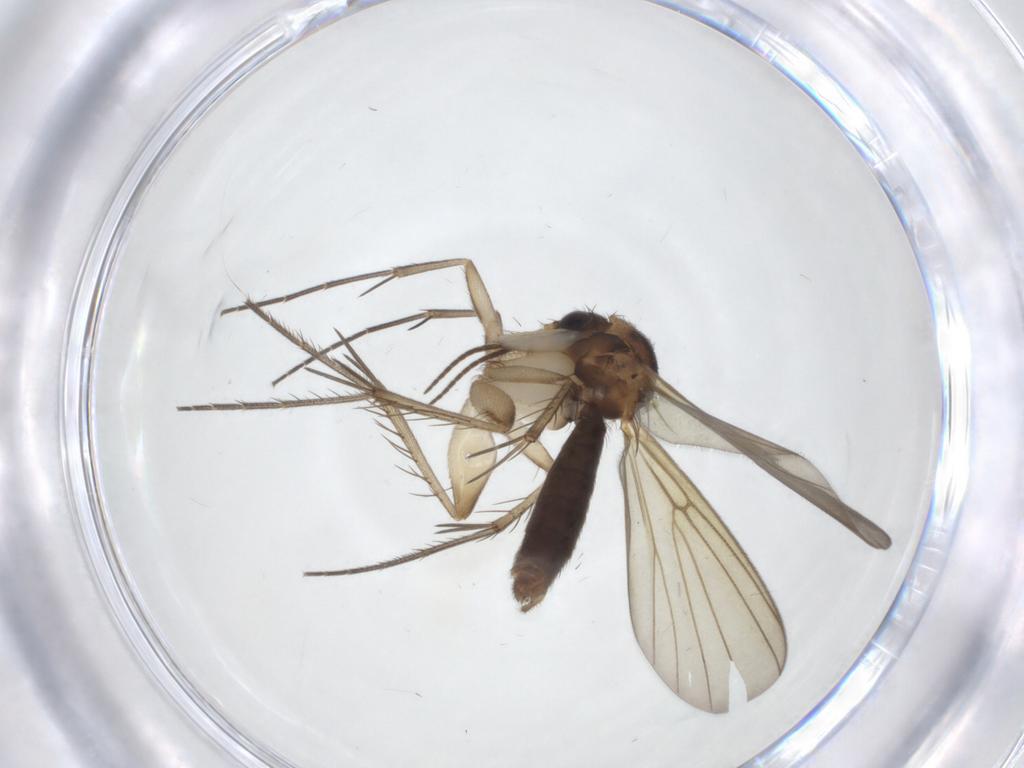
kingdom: Animalia
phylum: Arthropoda
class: Insecta
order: Diptera
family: Mycetophilidae
